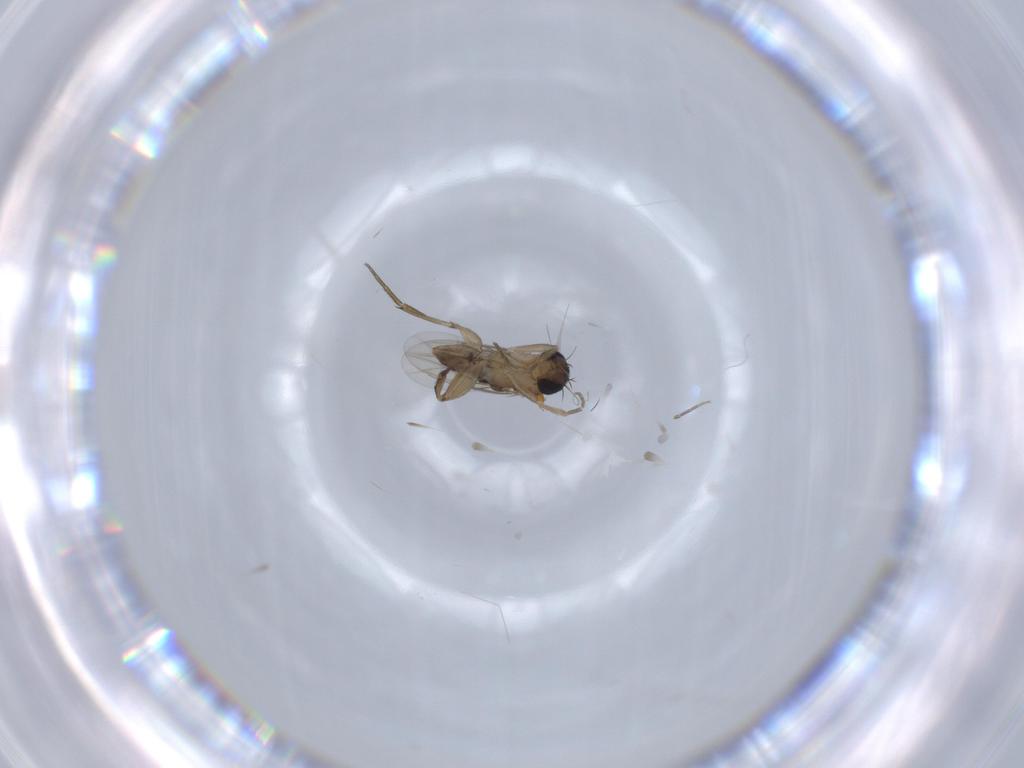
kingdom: Animalia
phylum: Arthropoda
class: Insecta
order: Diptera
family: Phoridae
